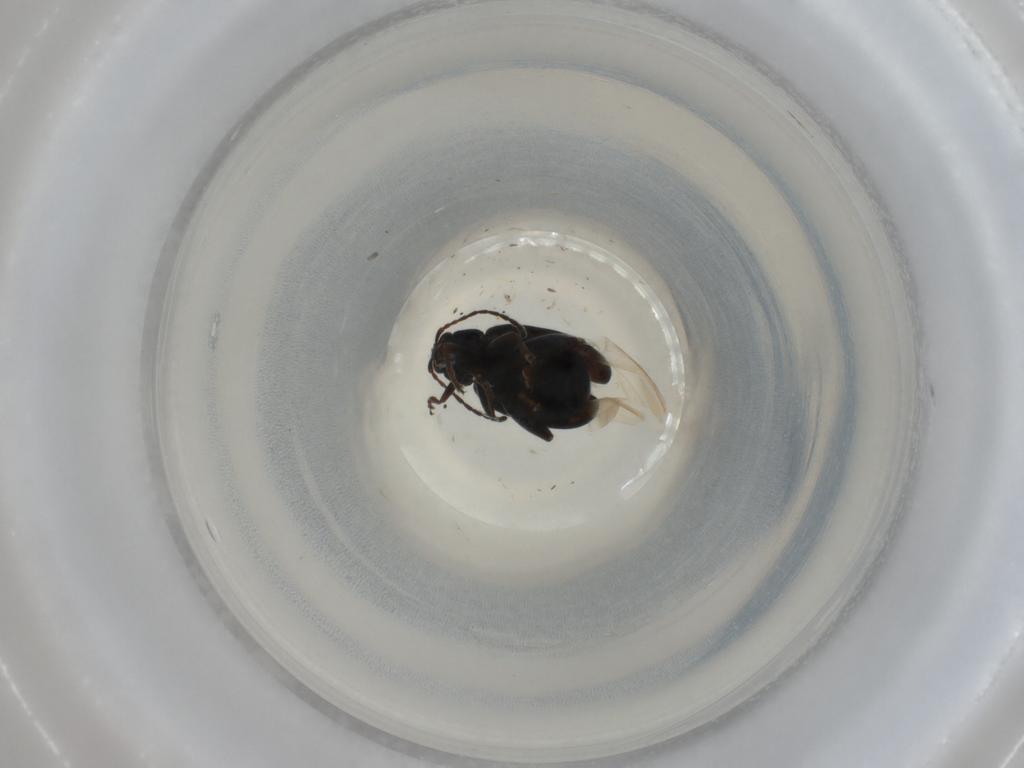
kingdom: Animalia
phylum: Arthropoda
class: Insecta
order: Coleoptera
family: Chrysomelidae
